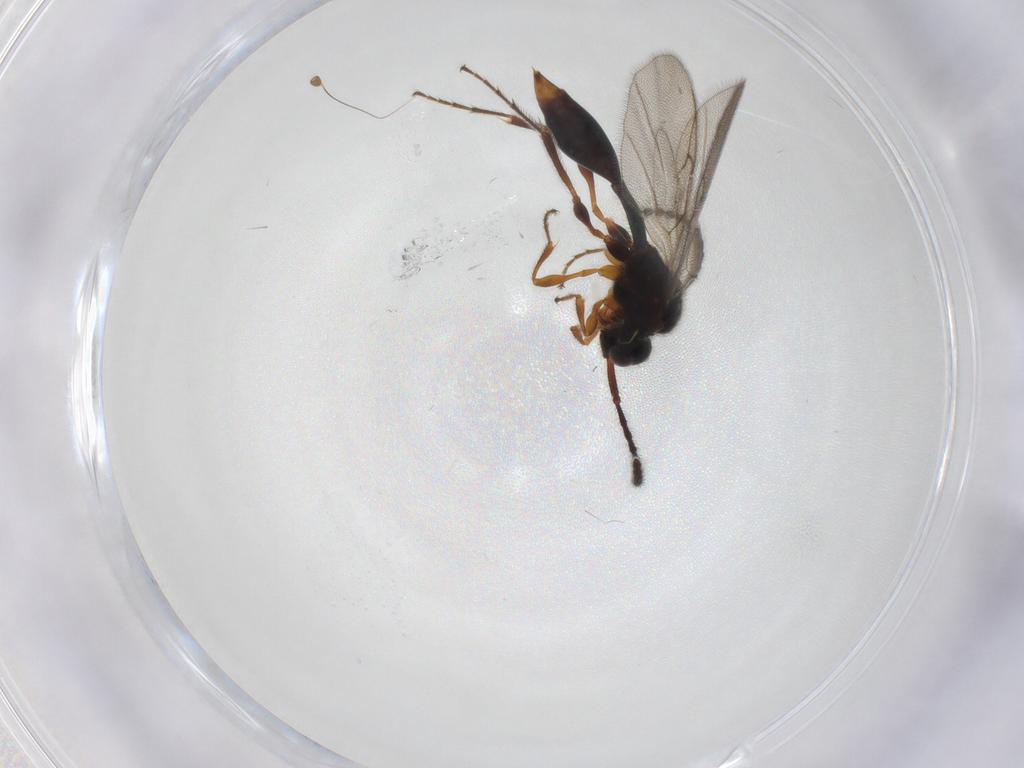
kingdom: Animalia
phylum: Arthropoda
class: Insecta
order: Hymenoptera
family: Diapriidae
